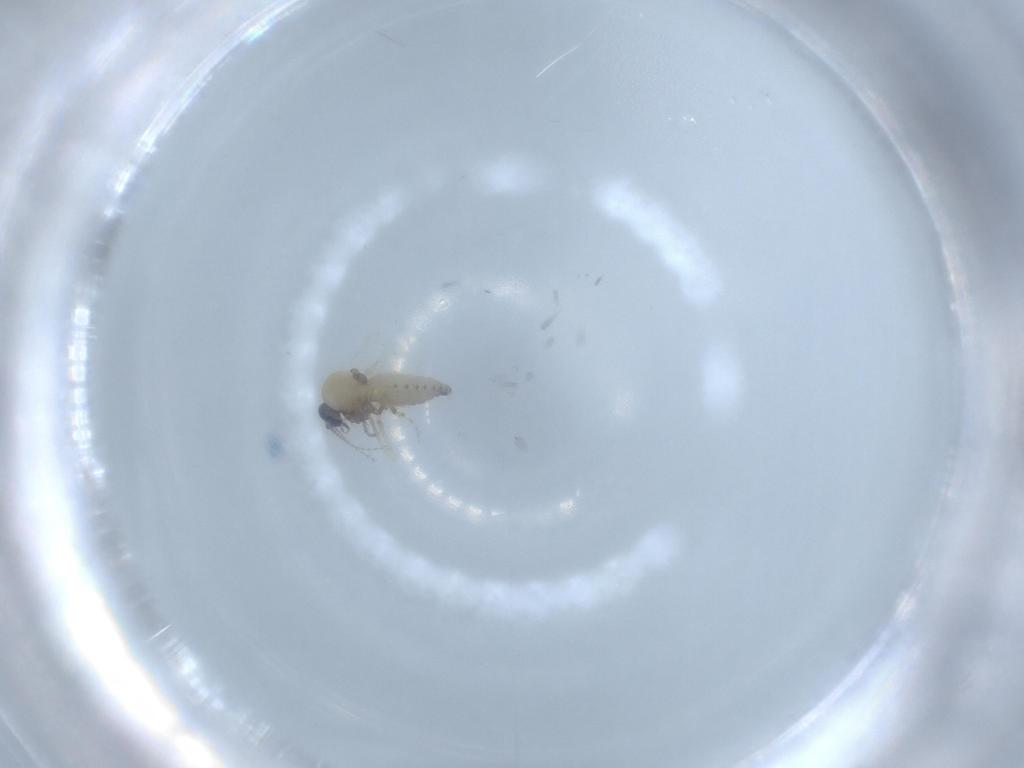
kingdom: Animalia
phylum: Arthropoda
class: Insecta
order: Diptera
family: Ceratopogonidae
